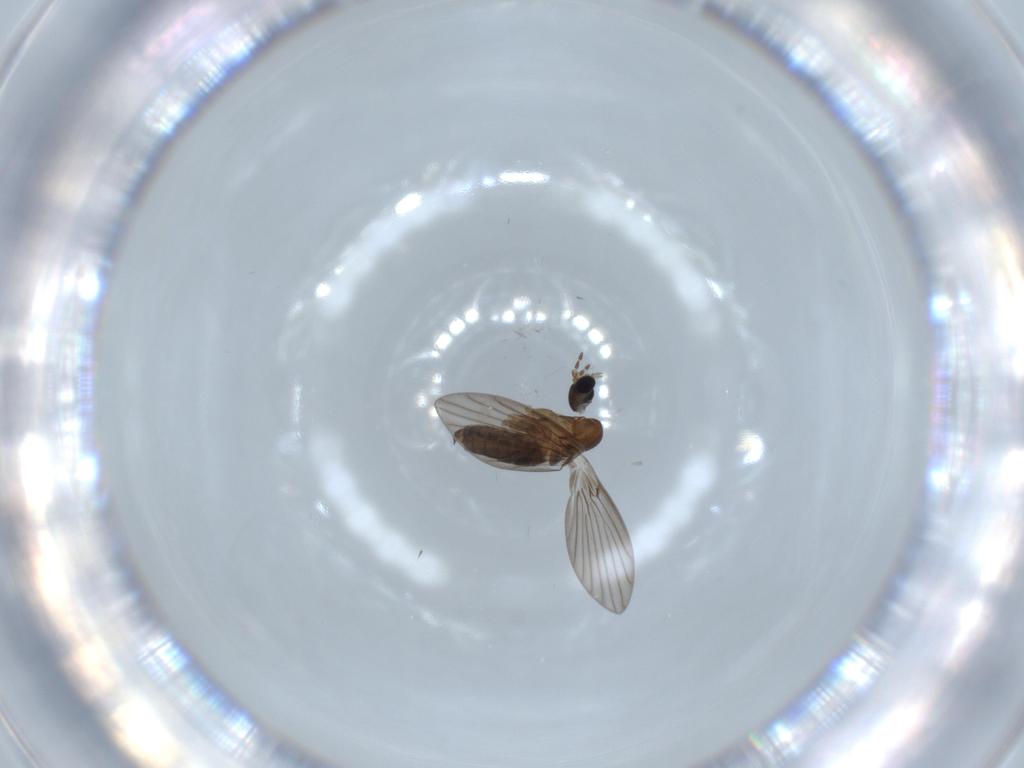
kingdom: Animalia
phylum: Arthropoda
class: Insecta
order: Diptera
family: Psychodidae
